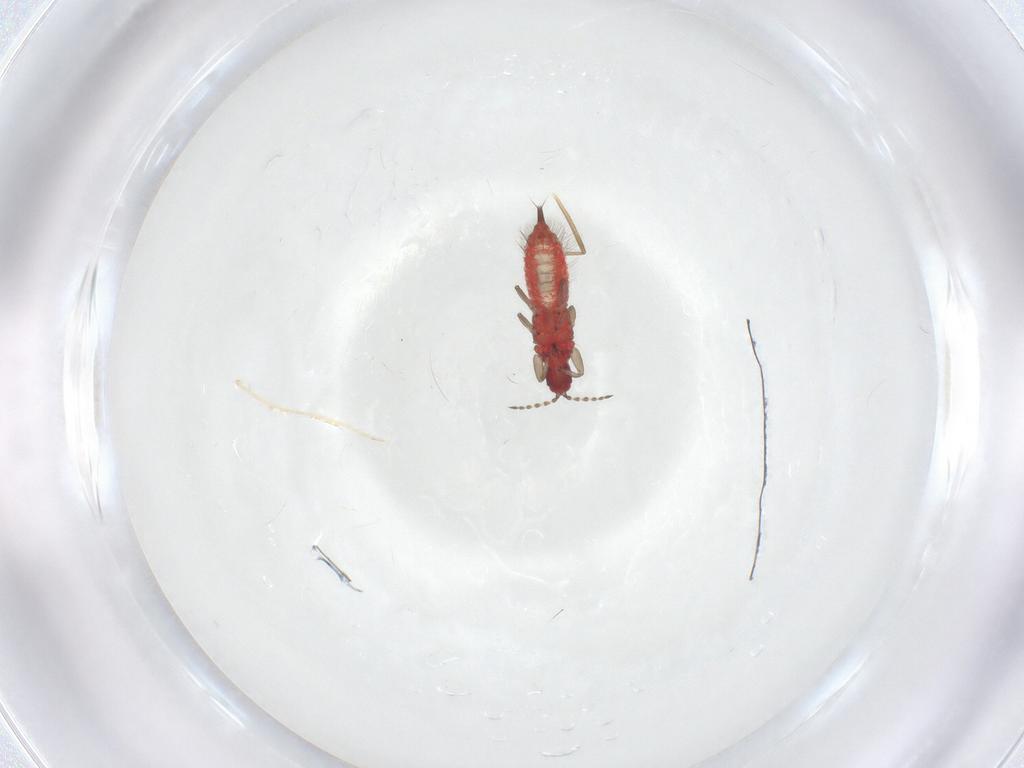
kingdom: Animalia
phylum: Arthropoda
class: Insecta
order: Thysanoptera
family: Phlaeothripidae
